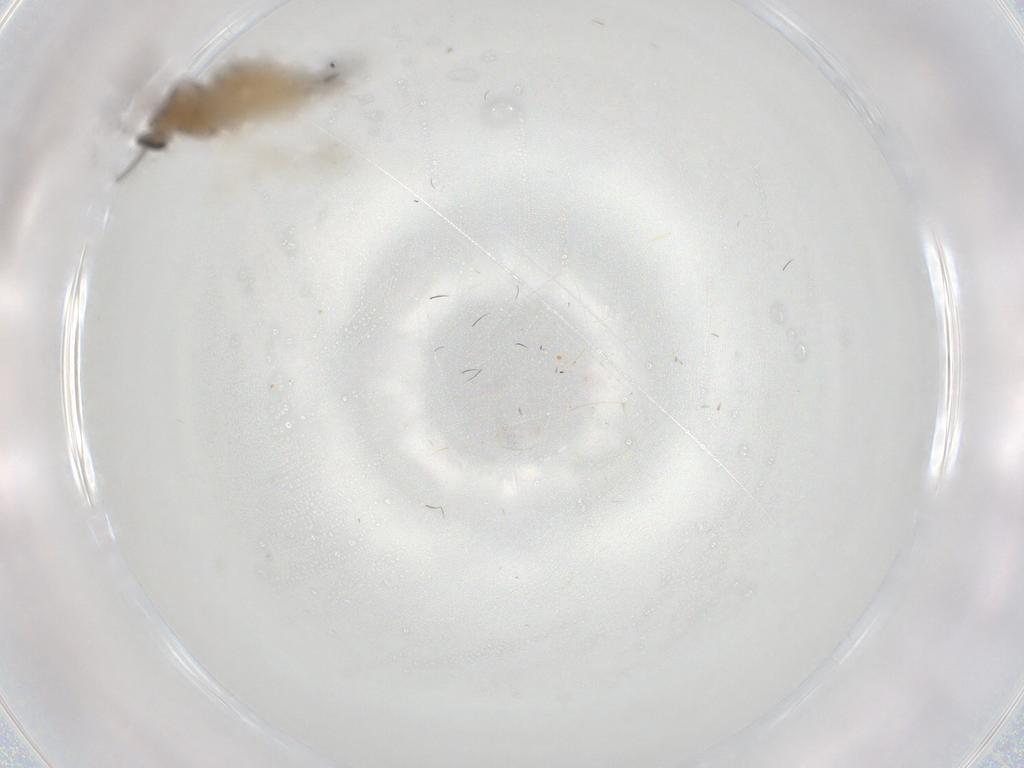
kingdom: Animalia
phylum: Arthropoda
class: Insecta
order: Diptera
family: Cecidomyiidae
